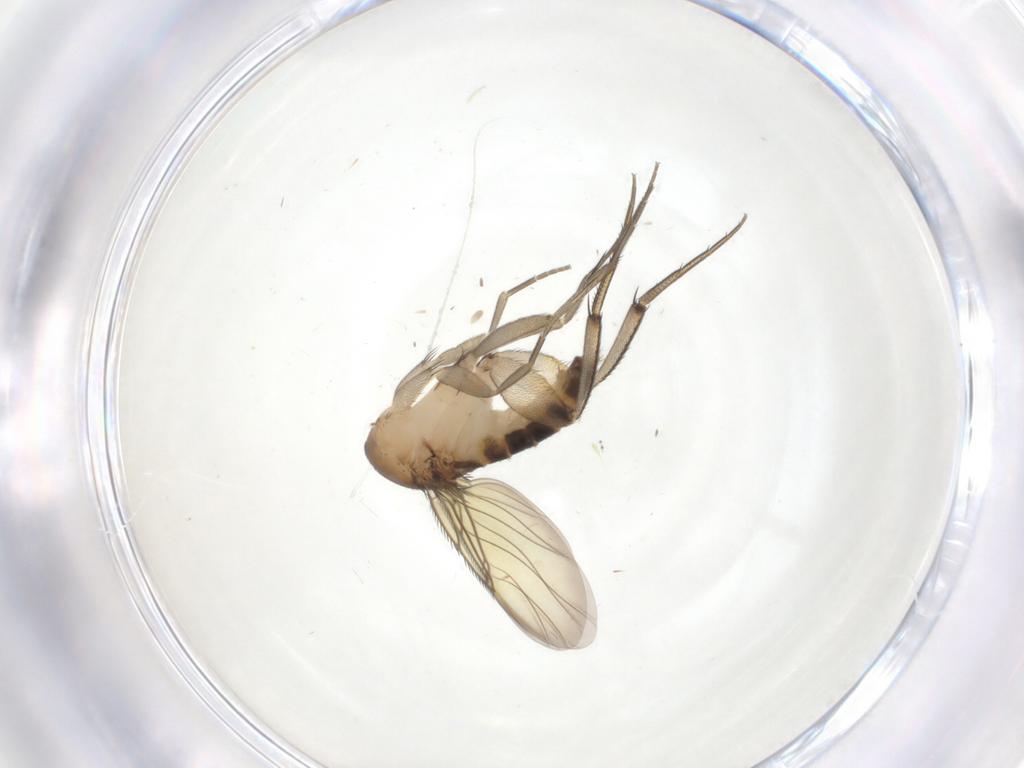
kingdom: Animalia
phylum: Arthropoda
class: Insecta
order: Diptera
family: Phoridae
